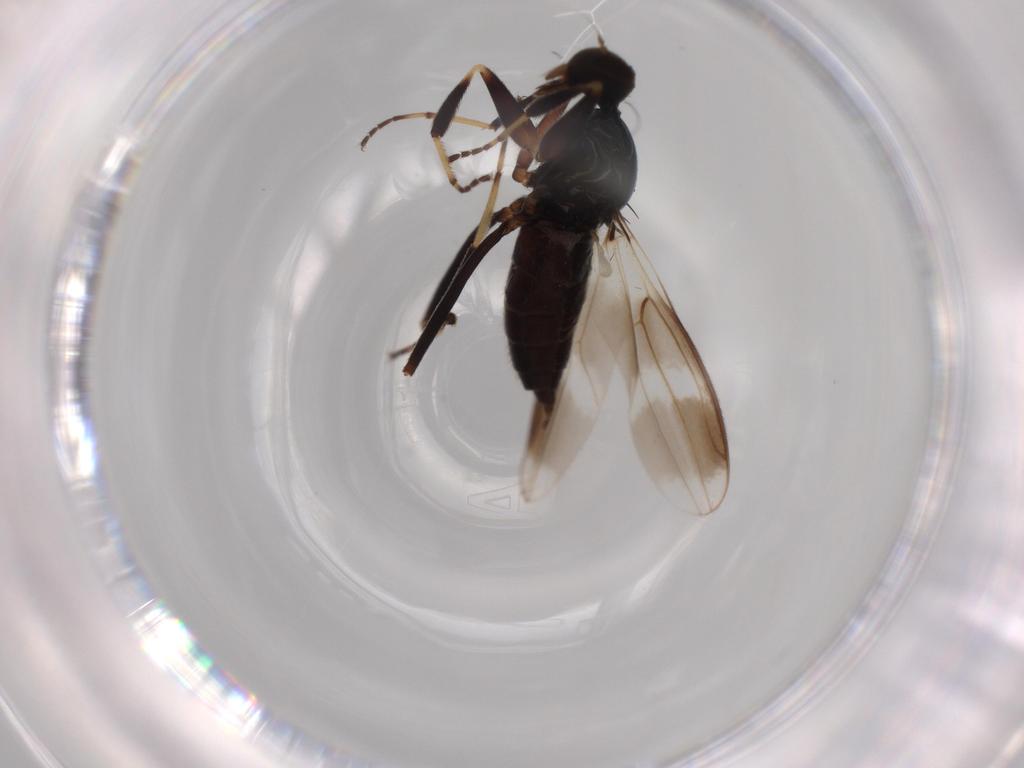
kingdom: Animalia
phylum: Arthropoda
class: Insecta
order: Diptera
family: Hybotidae
